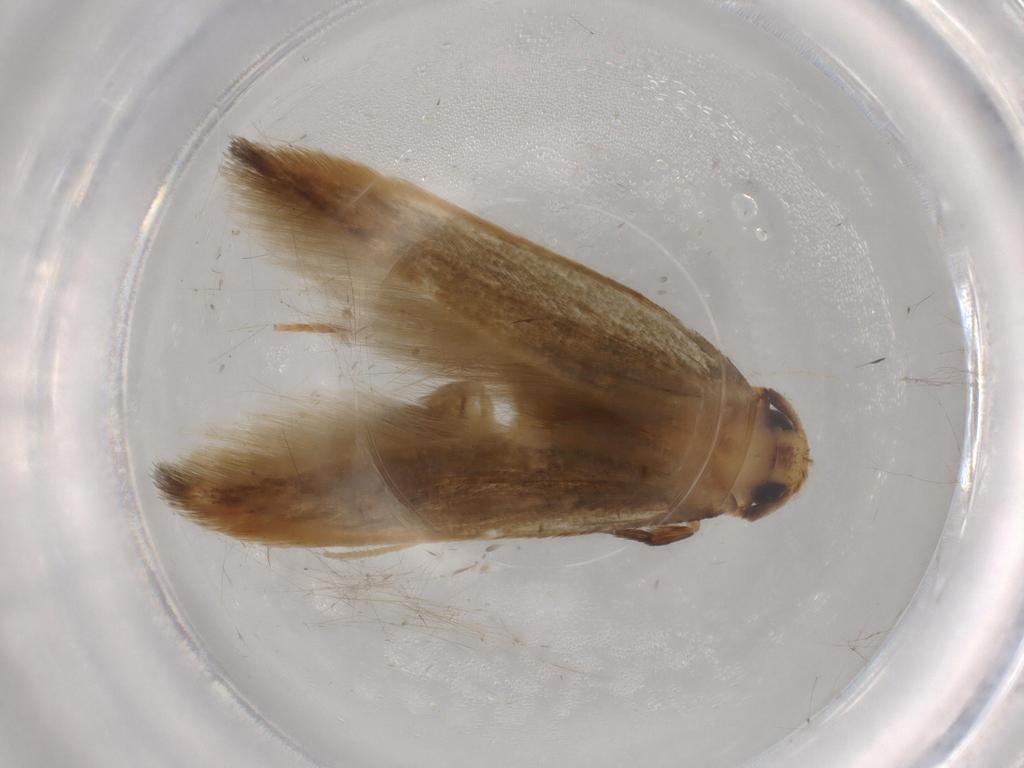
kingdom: Animalia
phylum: Arthropoda
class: Insecta
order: Lepidoptera
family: Tineidae
